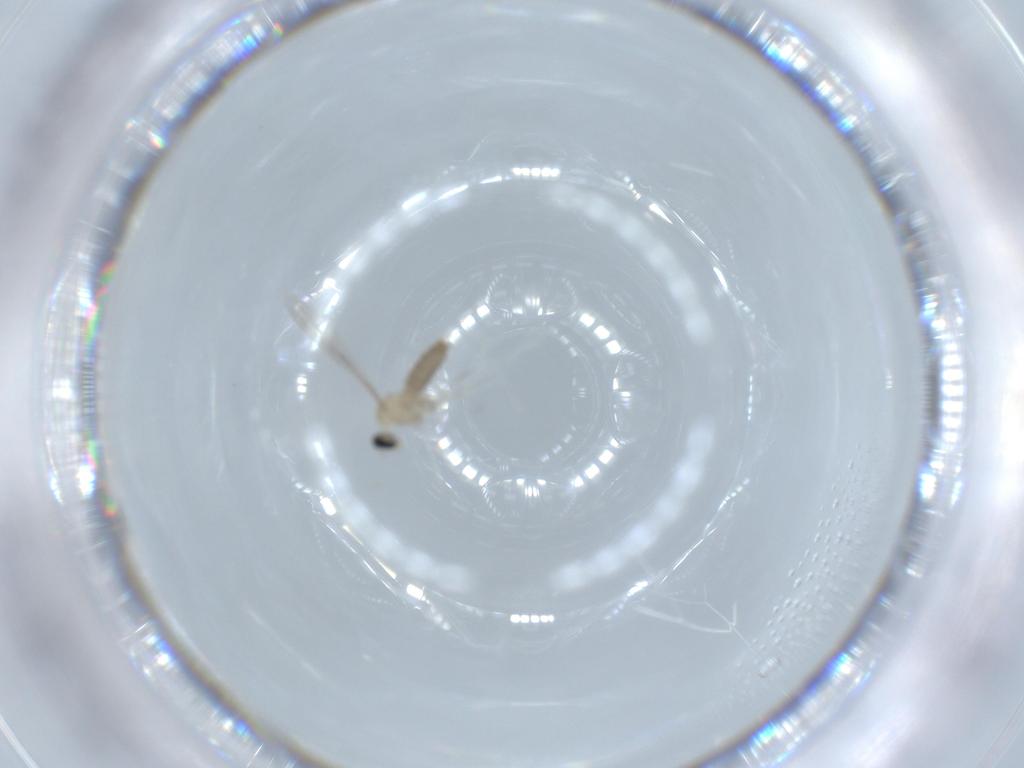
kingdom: Animalia
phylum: Arthropoda
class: Insecta
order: Diptera
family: Cecidomyiidae
